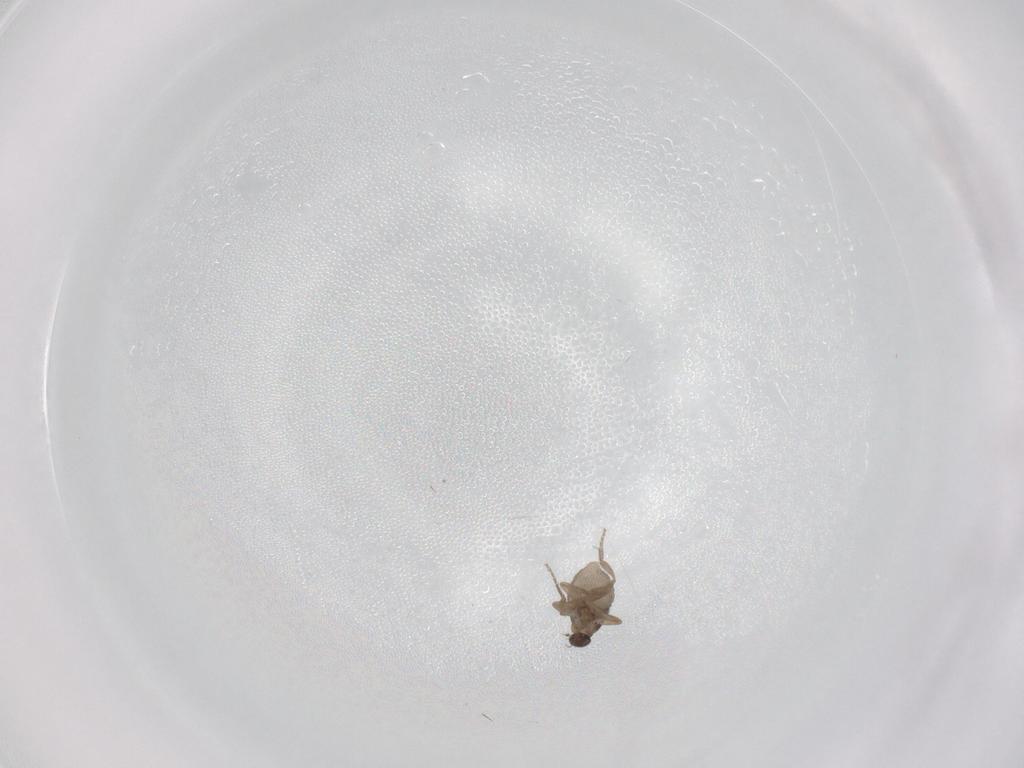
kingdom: Animalia
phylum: Arthropoda
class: Insecta
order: Diptera
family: Phoridae
